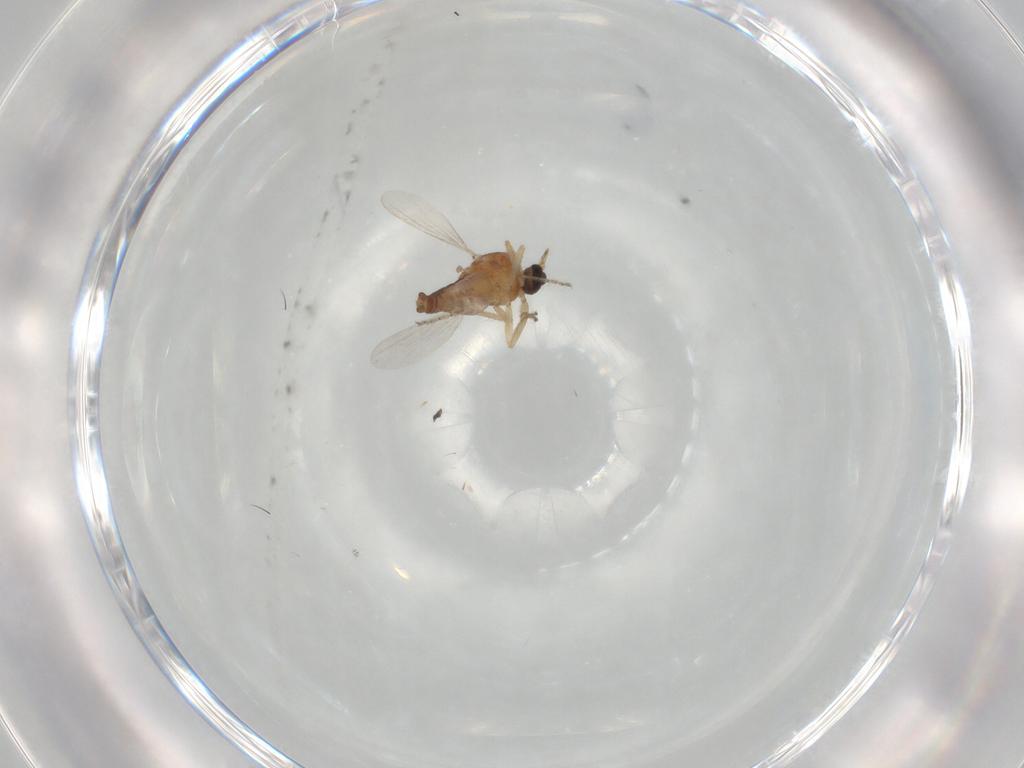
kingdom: Animalia
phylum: Arthropoda
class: Insecta
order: Diptera
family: Ceratopogonidae
